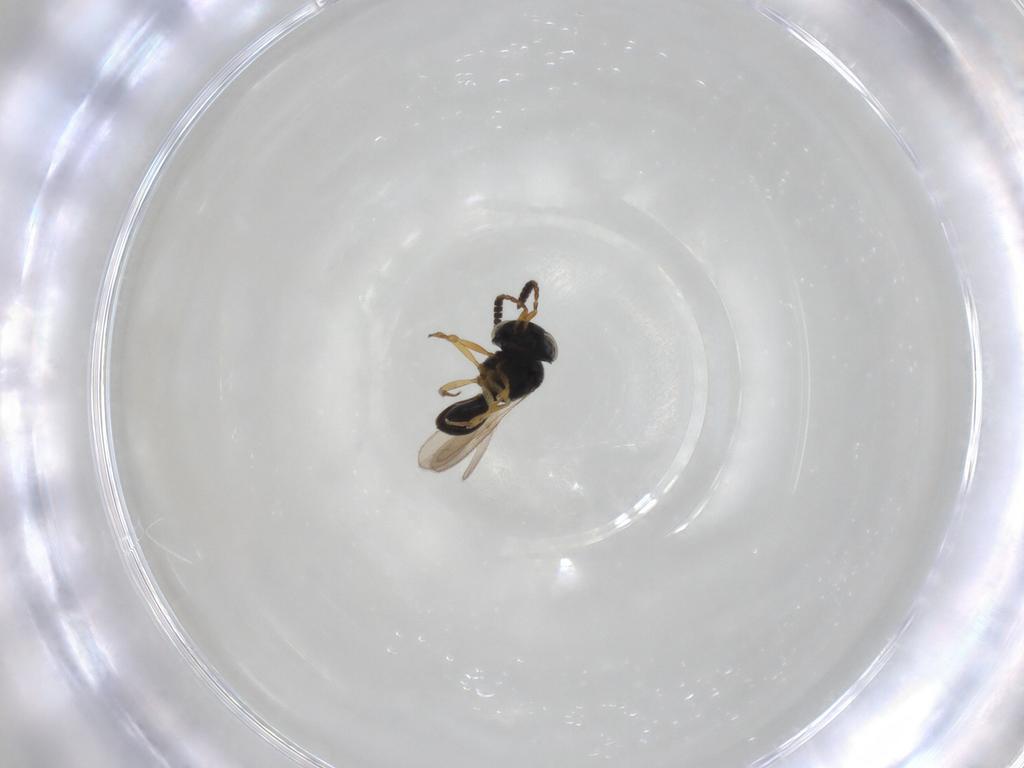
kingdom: Animalia
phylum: Arthropoda
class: Insecta
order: Hymenoptera
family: Scelionidae
